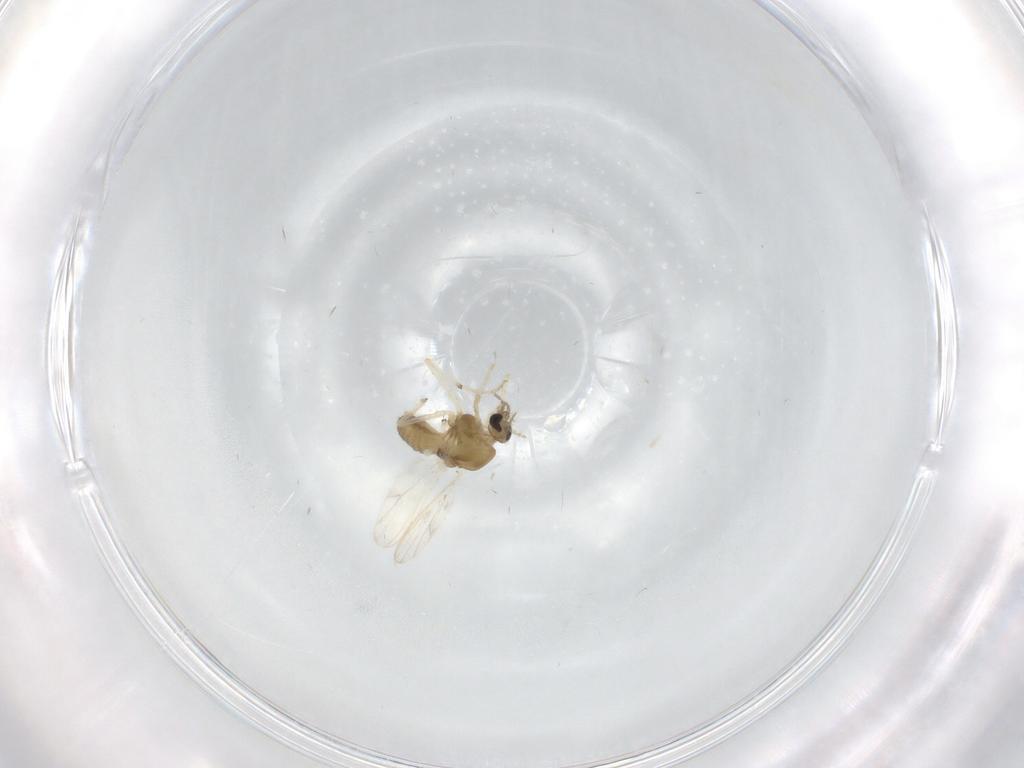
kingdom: Animalia
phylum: Arthropoda
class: Insecta
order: Diptera
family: Chironomidae
